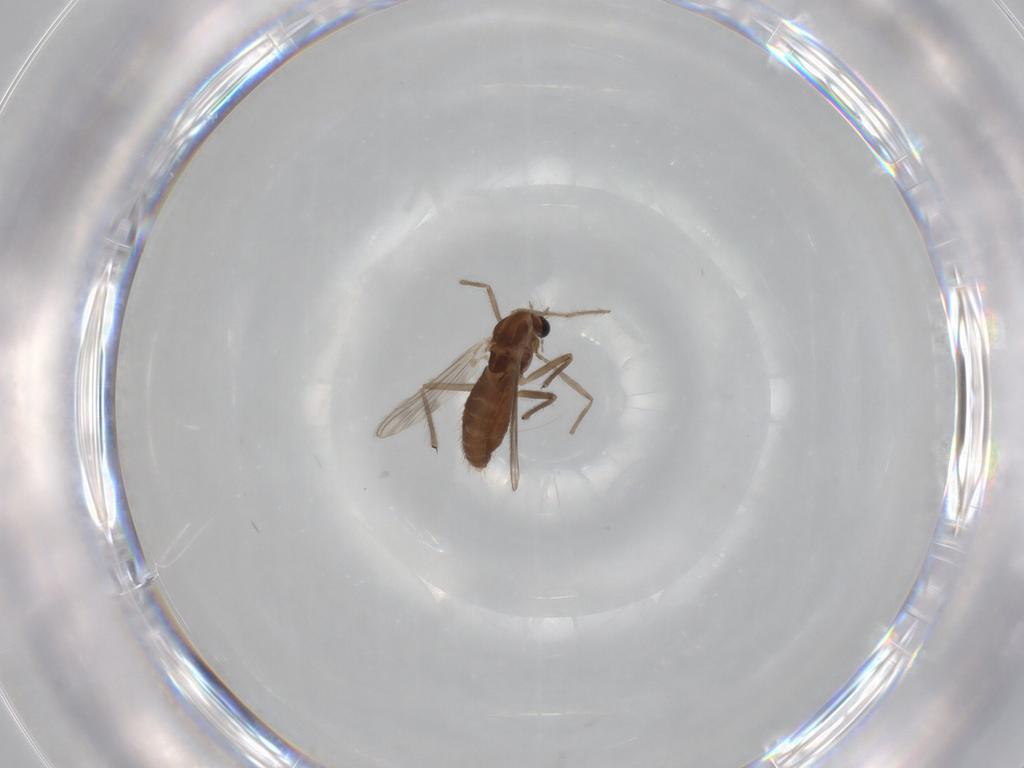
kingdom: Animalia
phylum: Arthropoda
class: Insecta
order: Diptera
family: Chironomidae
